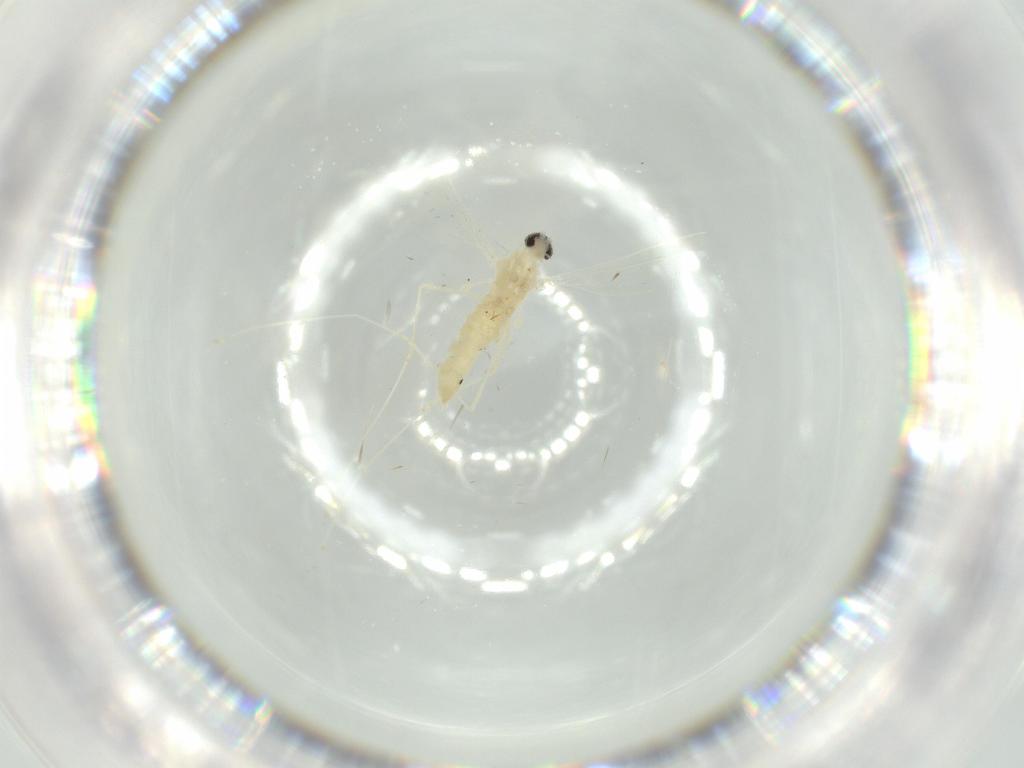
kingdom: Animalia
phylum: Arthropoda
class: Insecta
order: Diptera
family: Cecidomyiidae
